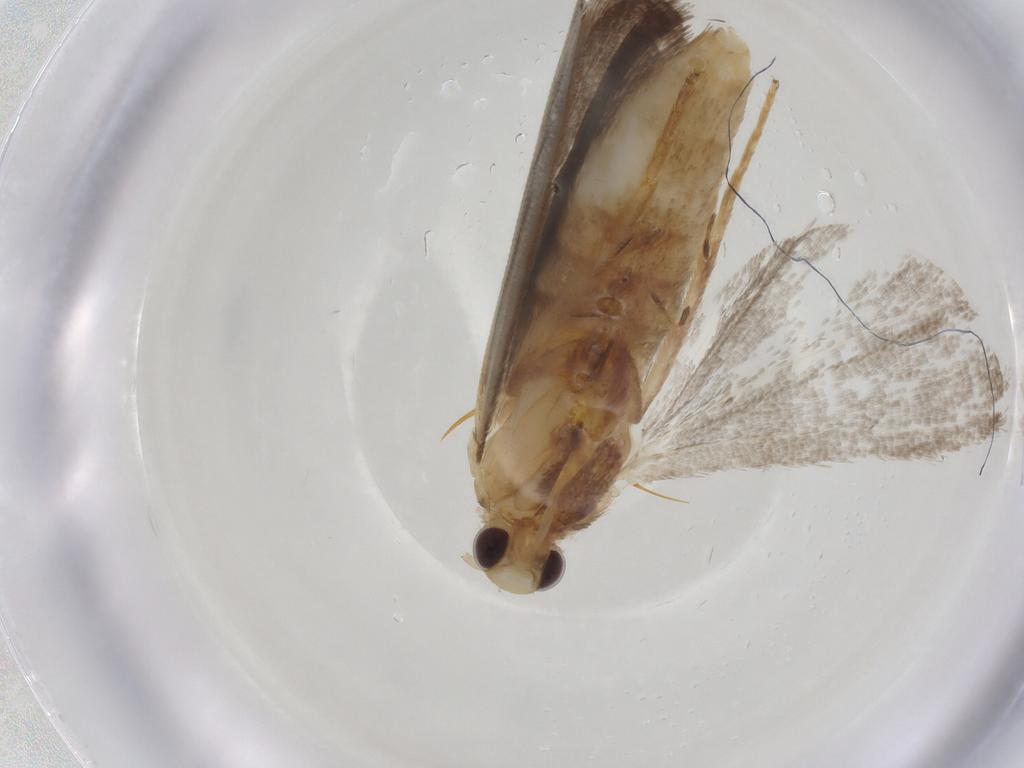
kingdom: Animalia
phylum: Arthropoda
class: Insecta
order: Lepidoptera
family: Pyralidae
